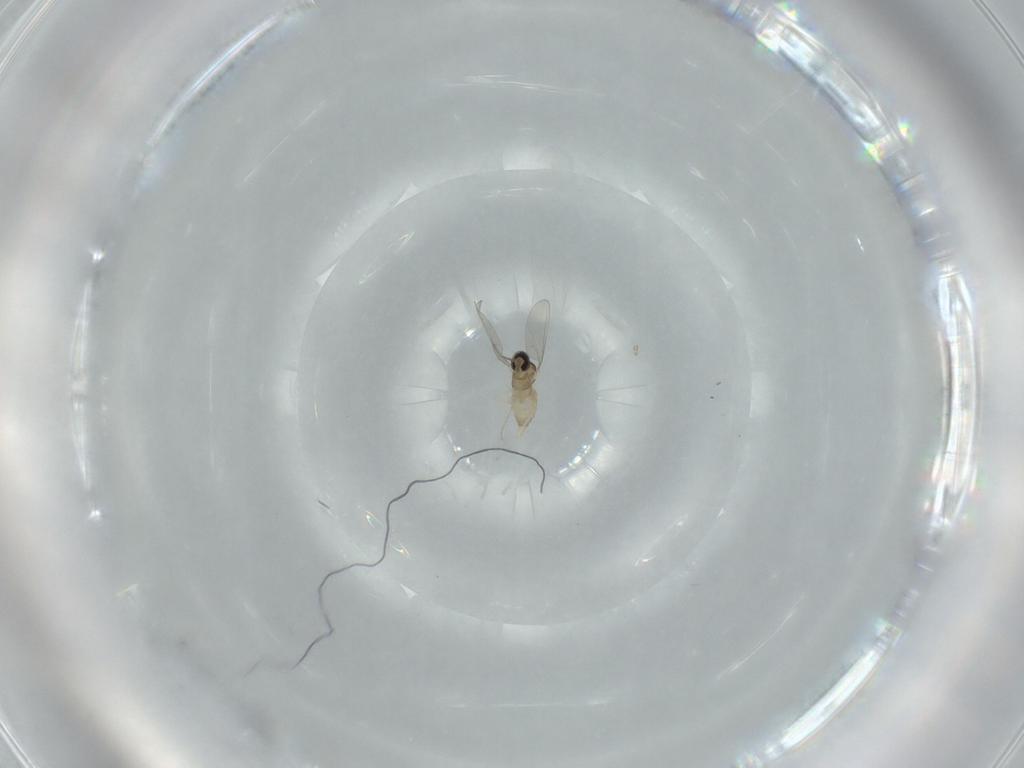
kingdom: Animalia
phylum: Arthropoda
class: Insecta
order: Diptera
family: Cecidomyiidae
